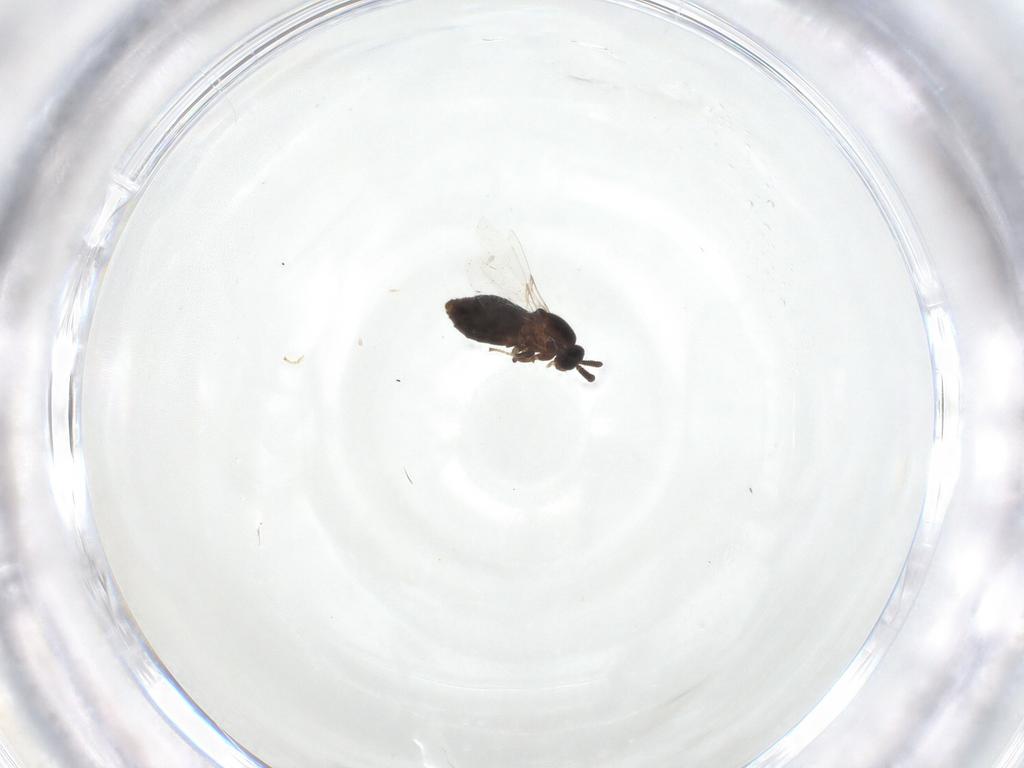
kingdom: Animalia
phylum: Arthropoda
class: Insecta
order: Diptera
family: Scatopsidae
